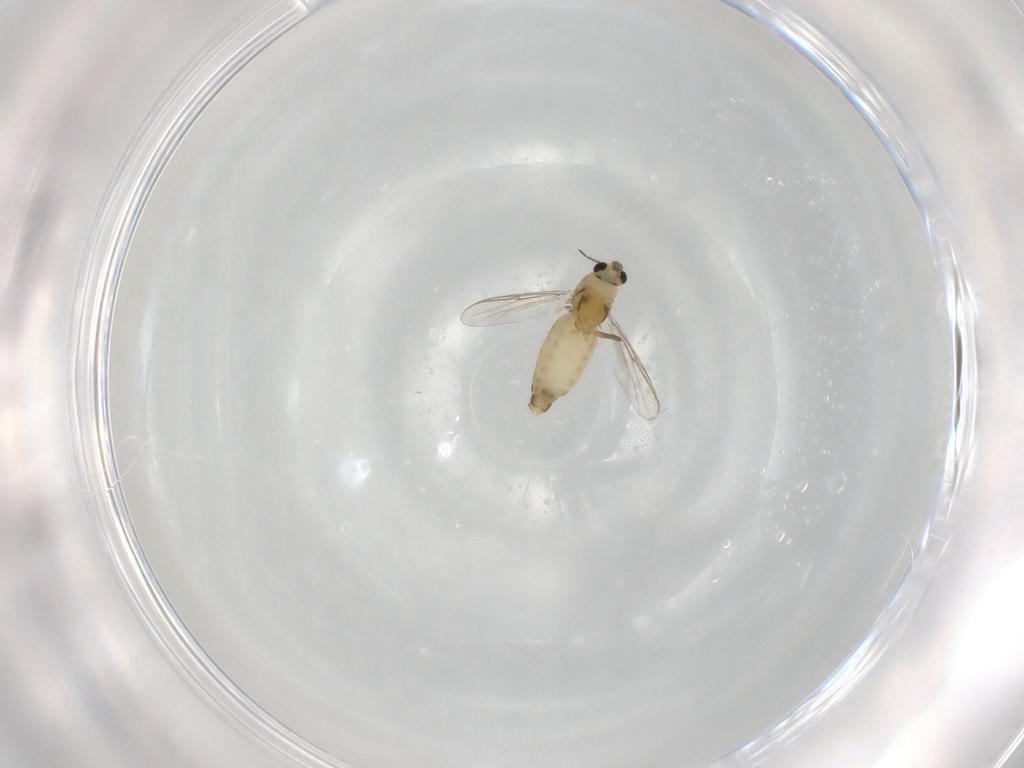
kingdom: Animalia
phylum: Arthropoda
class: Insecta
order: Diptera
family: Chironomidae
